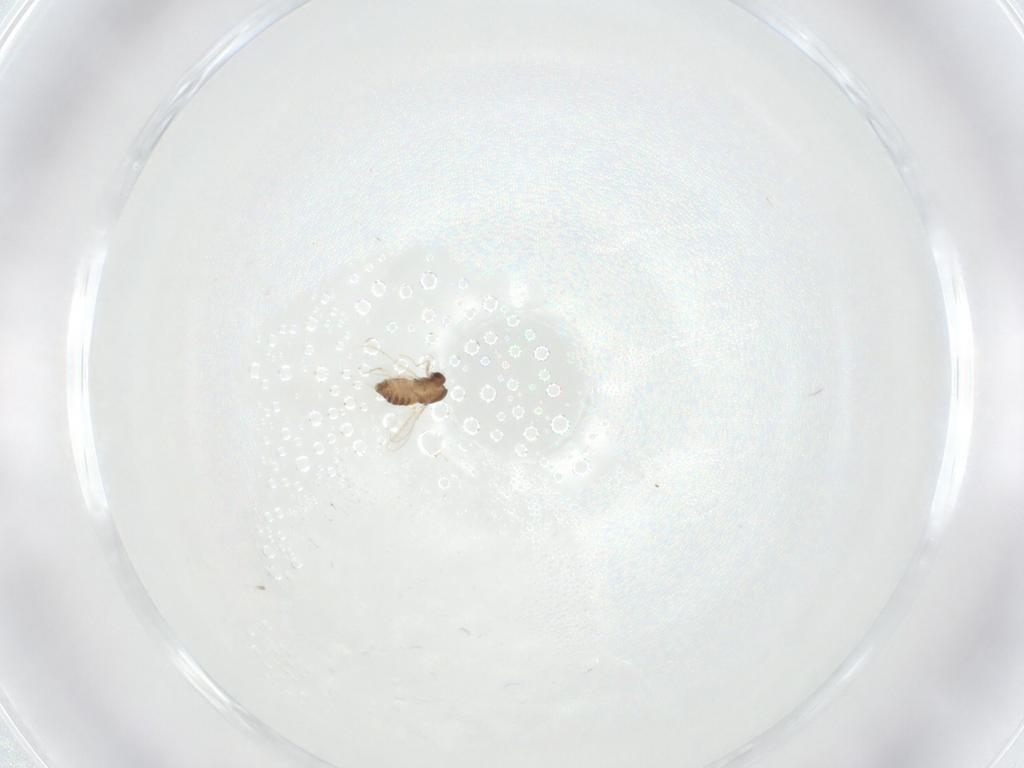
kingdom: Animalia
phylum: Arthropoda
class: Insecta
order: Diptera
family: Chironomidae
